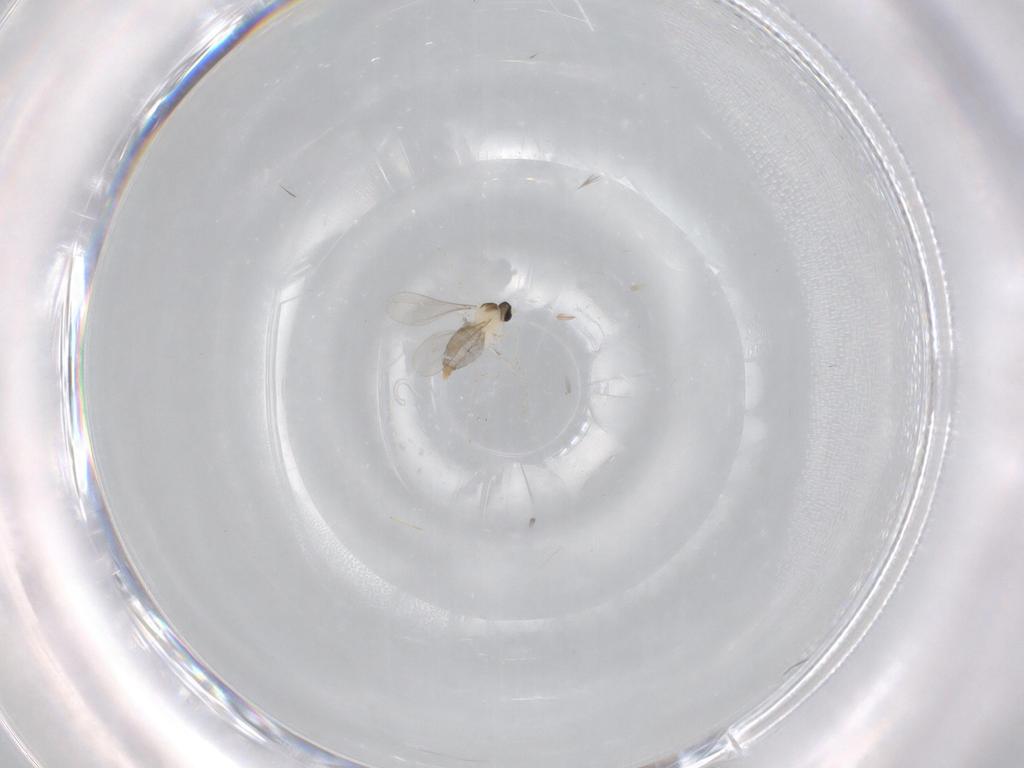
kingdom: Animalia
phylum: Arthropoda
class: Insecta
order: Diptera
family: Cecidomyiidae
